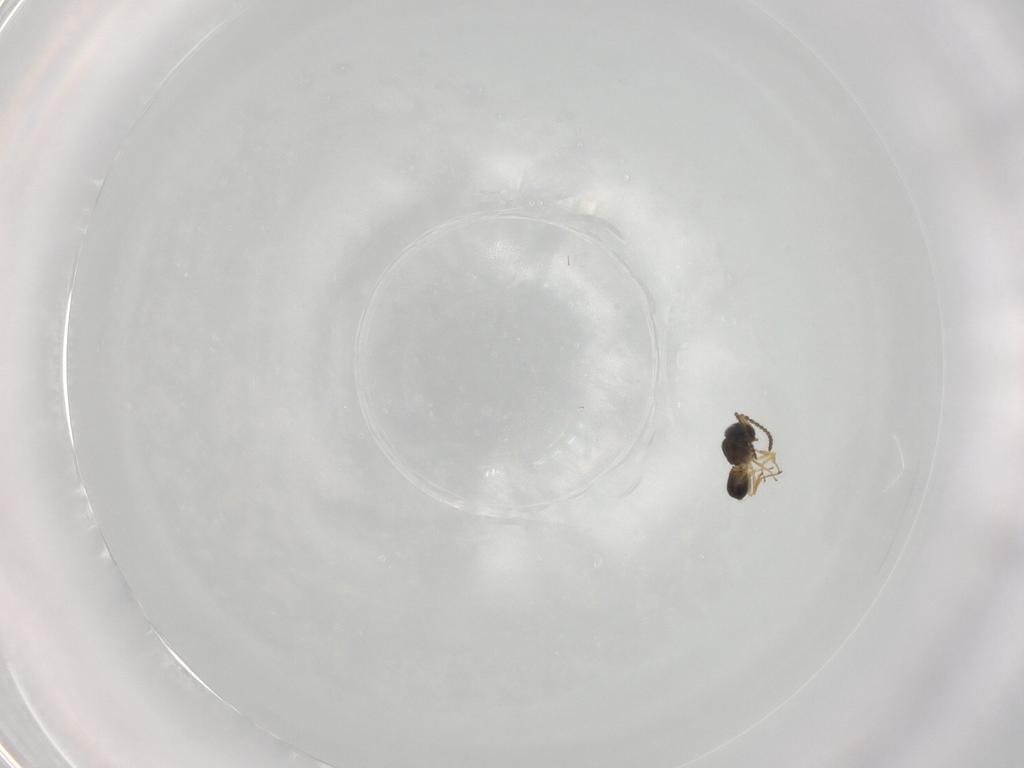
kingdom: Animalia
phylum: Arthropoda
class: Insecta
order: Hymenoptera
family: Scelionidae
